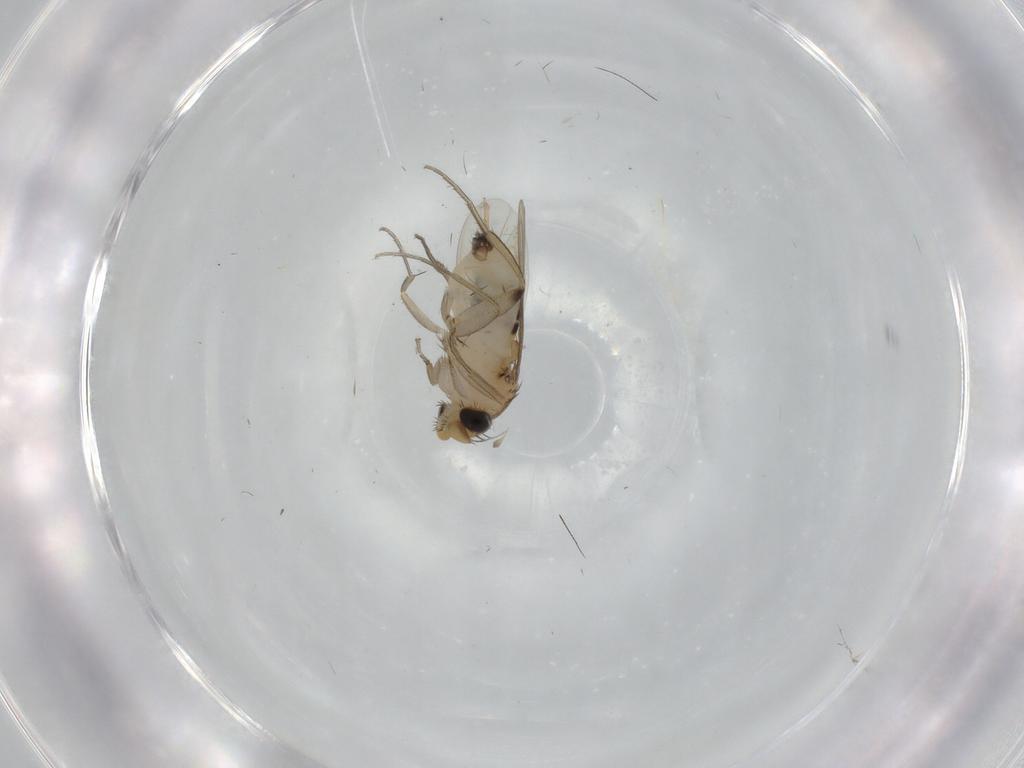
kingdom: Animalia
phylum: Arthropoda
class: Insecta
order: Diptera
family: Phoridae
